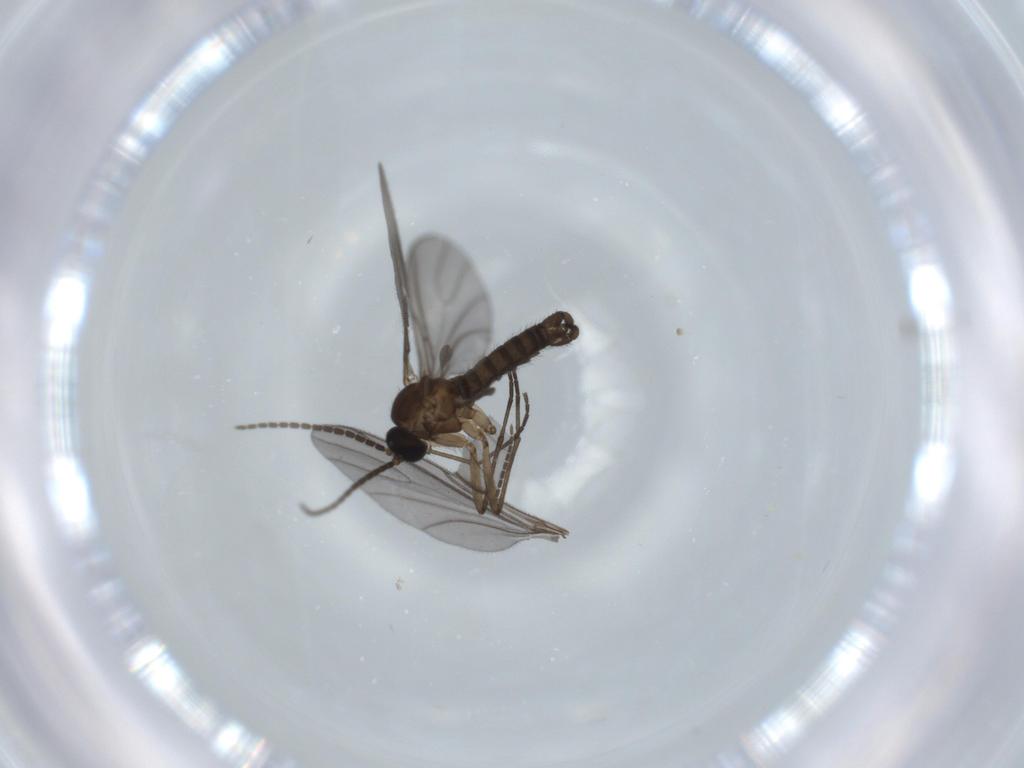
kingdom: Animalia
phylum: Arthropoda
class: Insecta
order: Diptera
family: Sciaridae
